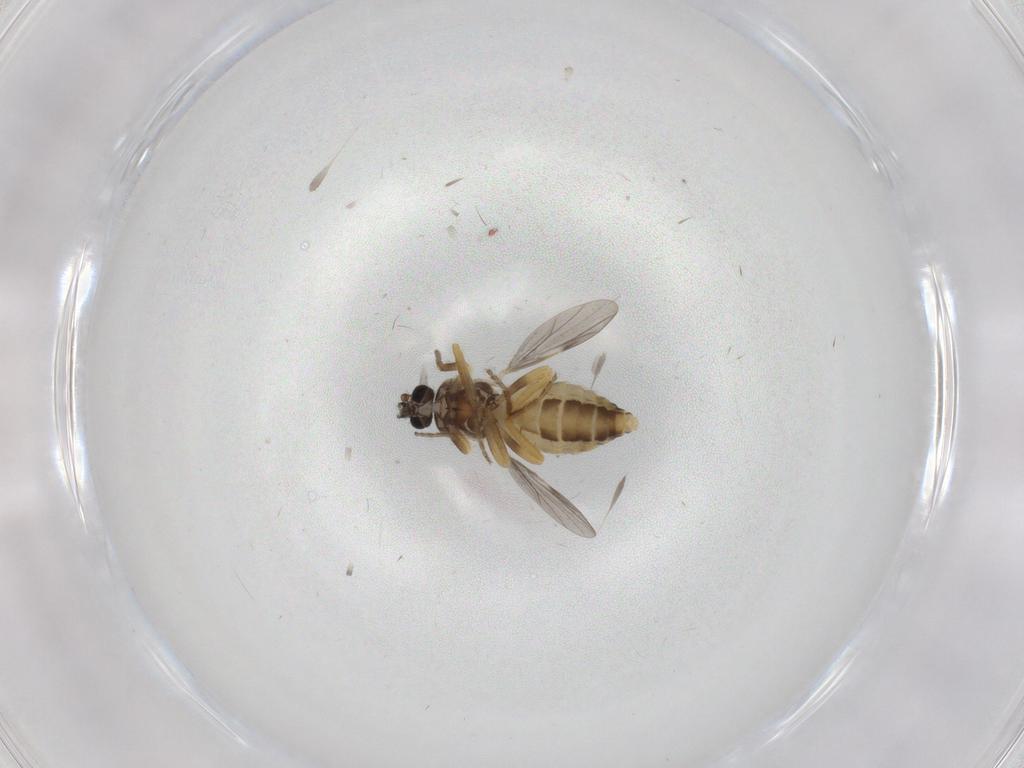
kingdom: Animalia
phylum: Arthropoda
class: Insecta
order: Diptera
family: Ceratopogonidae
